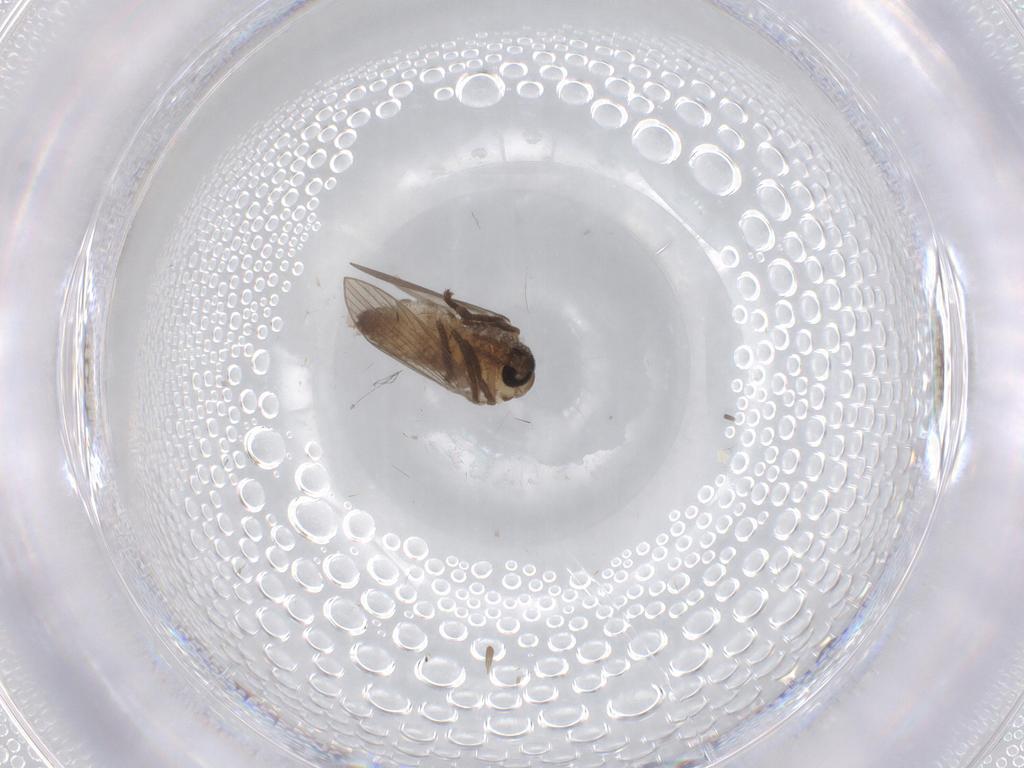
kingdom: Animalia
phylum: Arthropoda
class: Insecta
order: Diptera
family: Psychodidae
